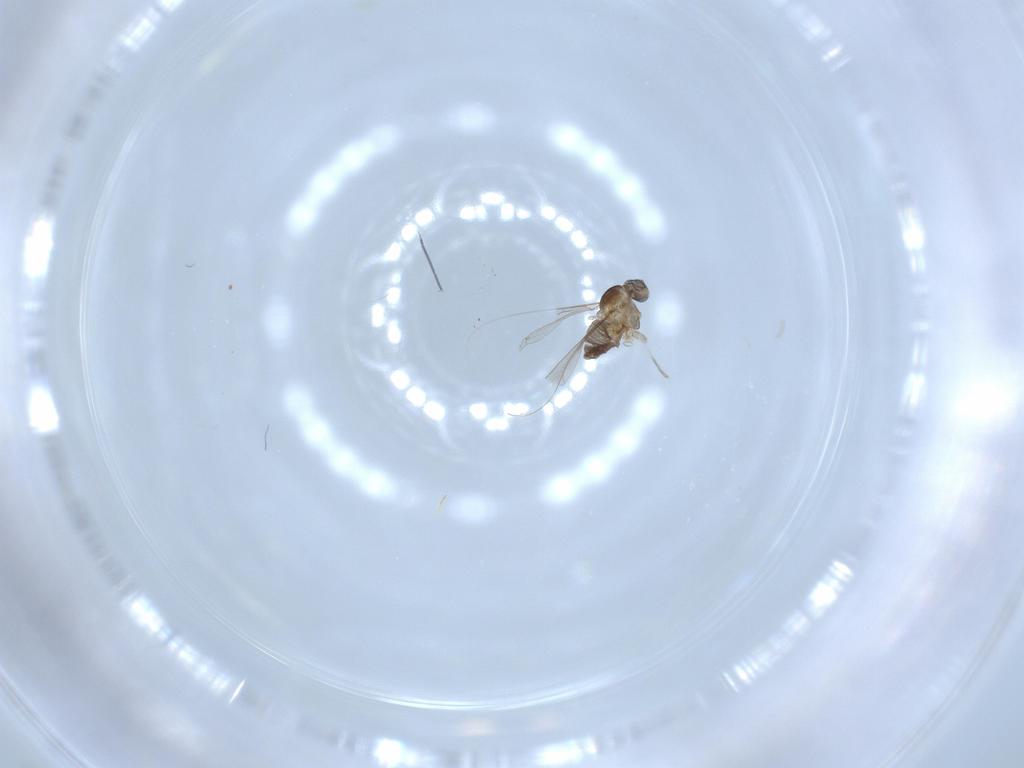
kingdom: Animalia
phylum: Arthropoda
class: Insecta
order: Diptera
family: Cecidomyiidae
